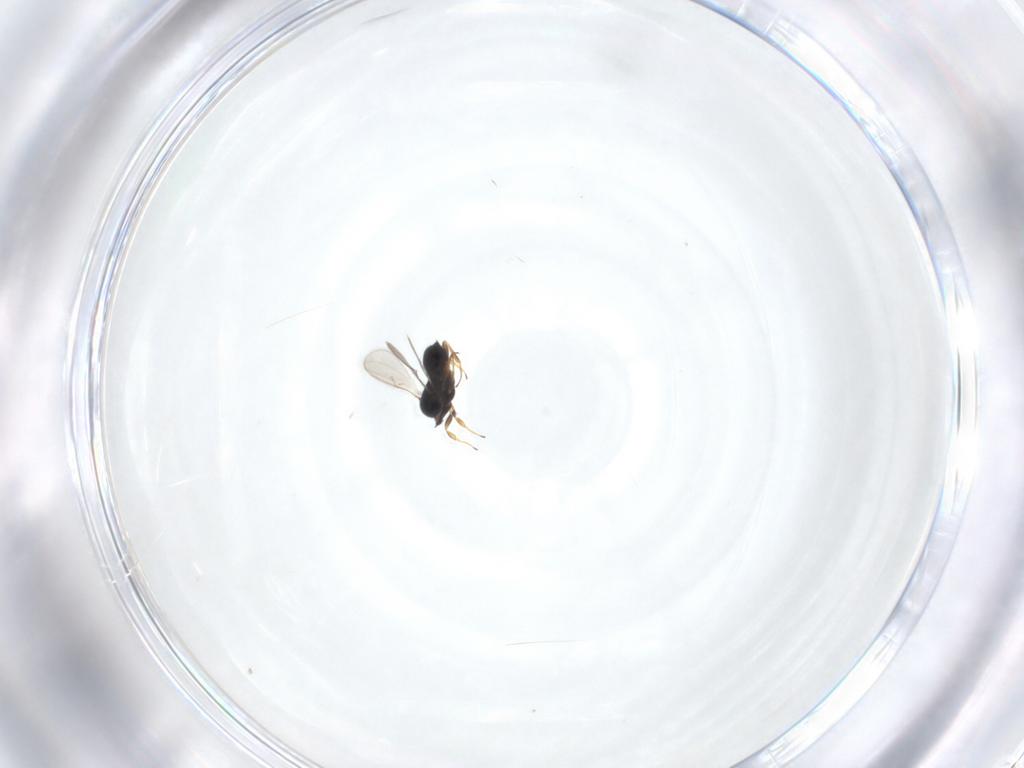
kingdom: Animalia
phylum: Arthropoda
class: Insecta
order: Hymenoptera
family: Scelionidae
